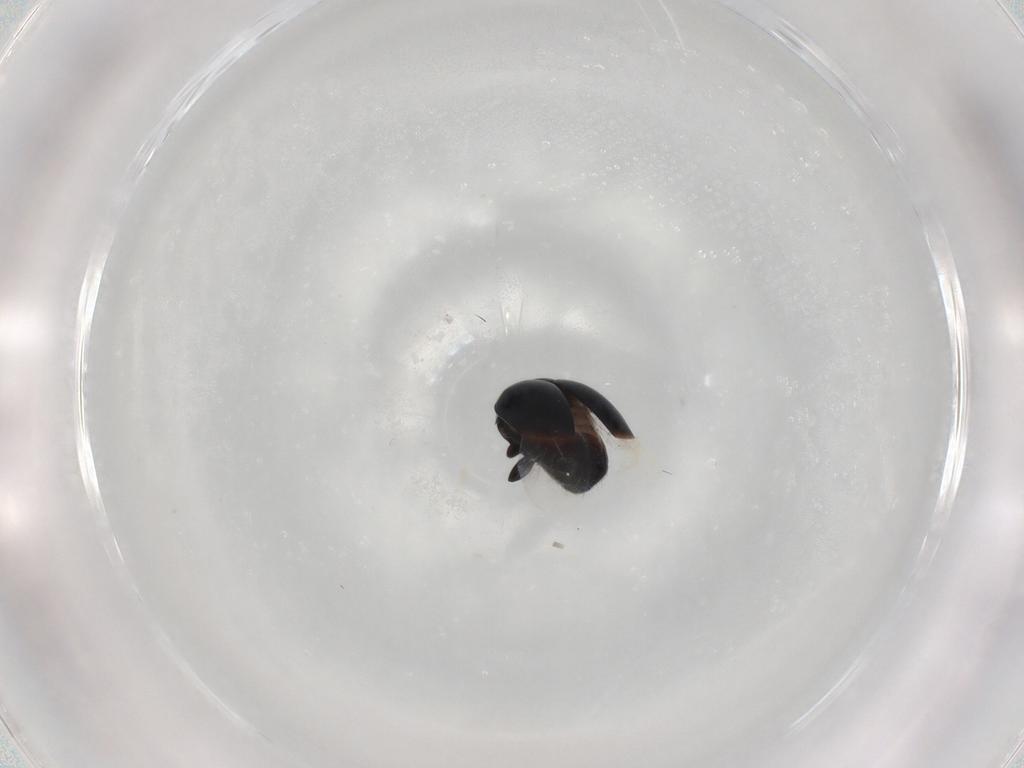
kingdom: Animalia
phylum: Arthropoda
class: Insecta
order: Coleoptera
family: Cybocephalidae
